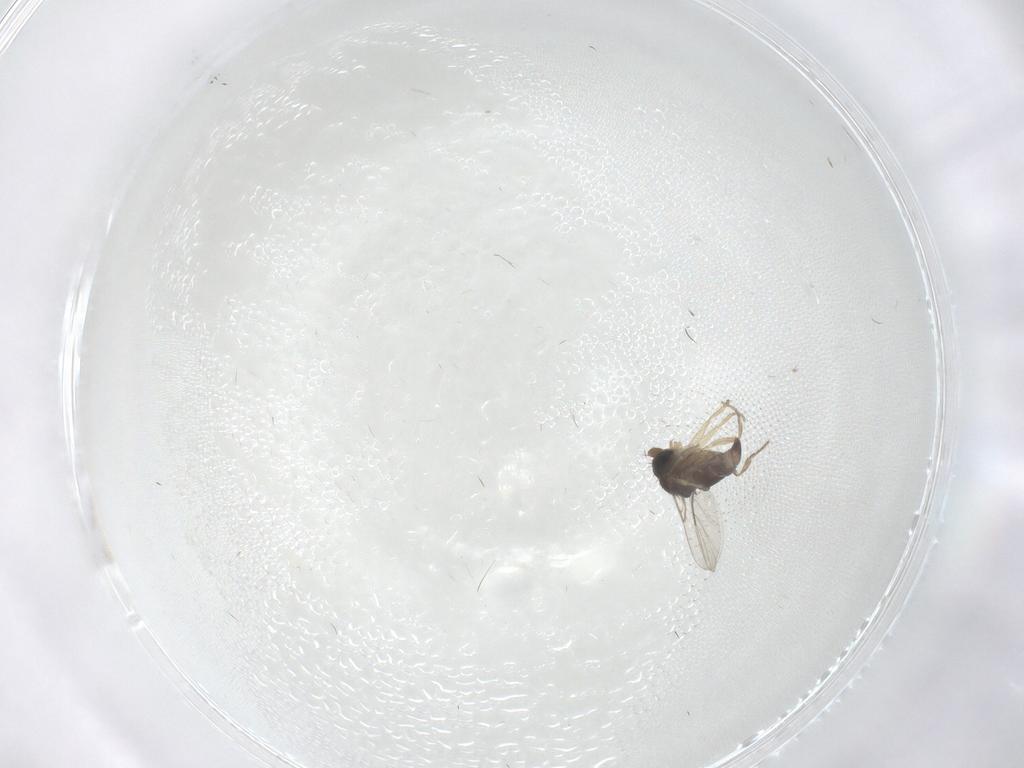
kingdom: Animalia
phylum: Arthropoda
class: Insecta
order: Diptera
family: Phoridae
